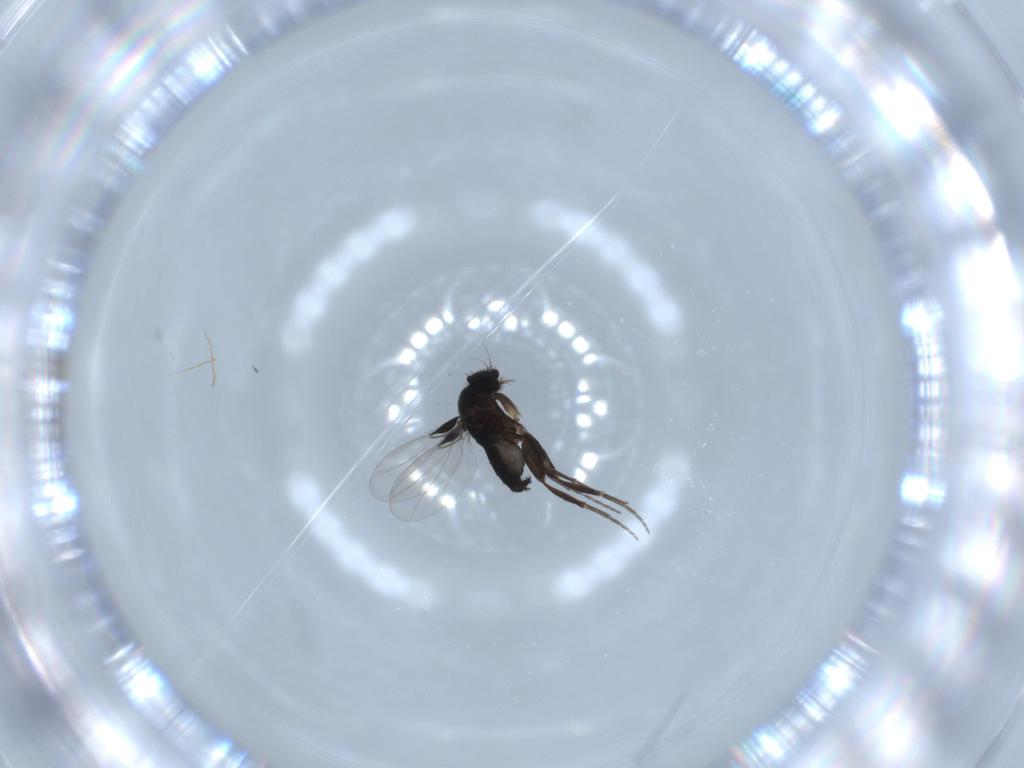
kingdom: Animalia
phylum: Arthropoda
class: Insecta
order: Diptera
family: Phoridae
